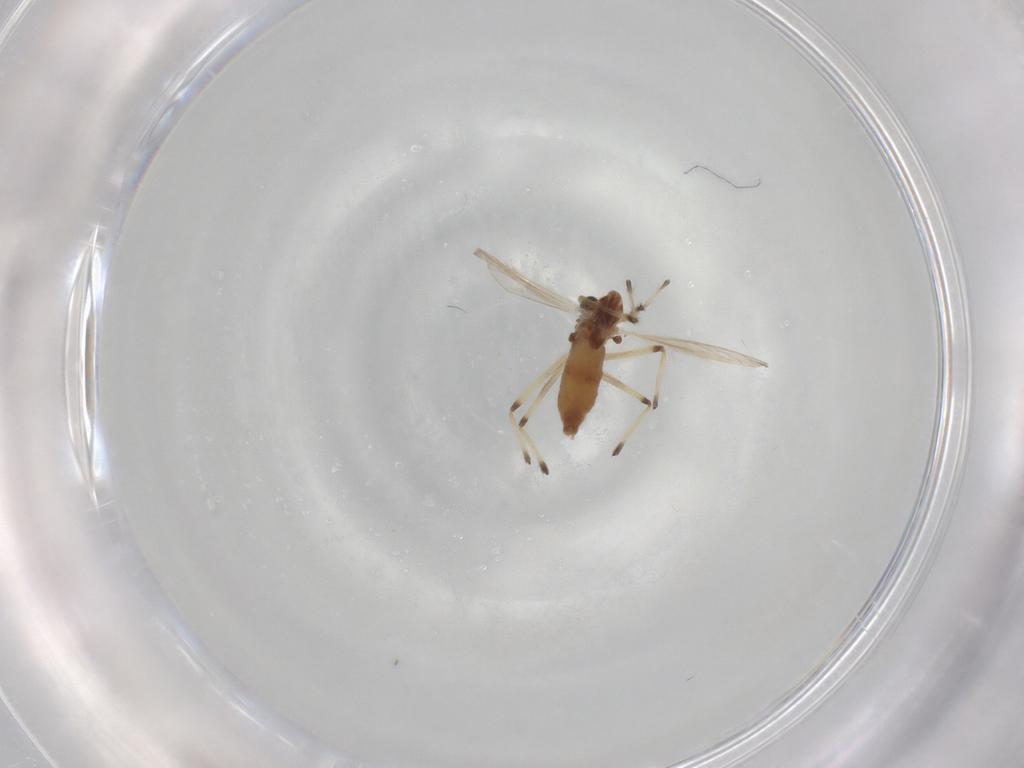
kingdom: Animalia
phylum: Arthropoda
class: Insecta
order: Diptera
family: Chironomidae
